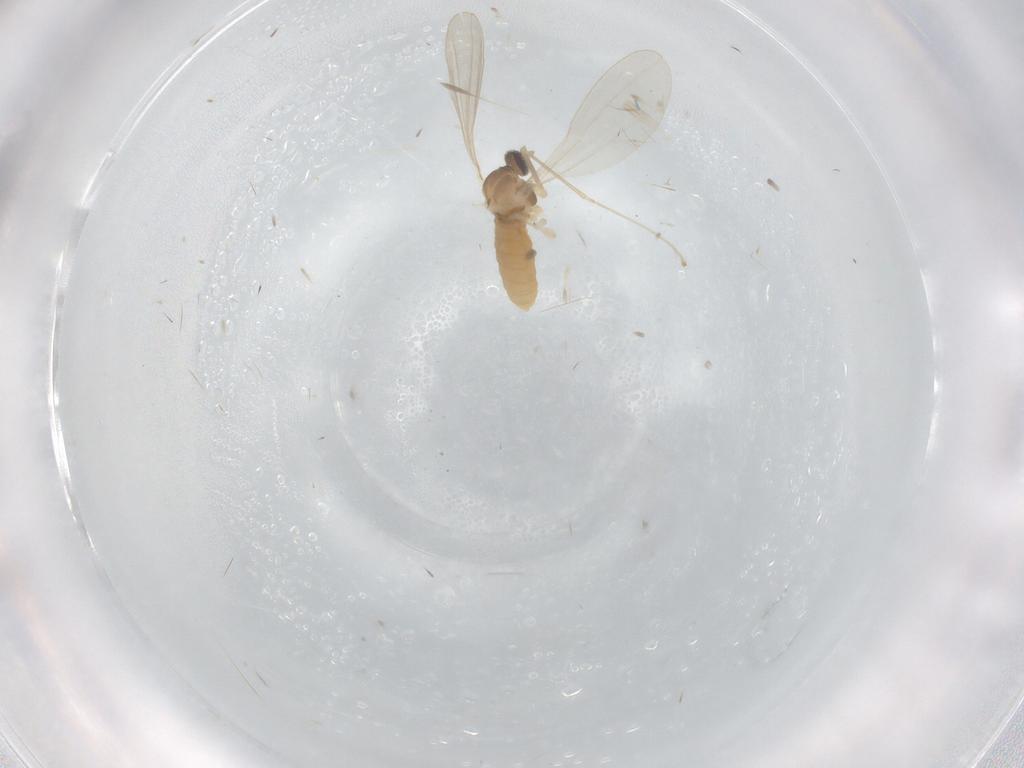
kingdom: Animalia
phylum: Arthropoda
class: Insecta
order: Diptera
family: Cecidomyiidae
